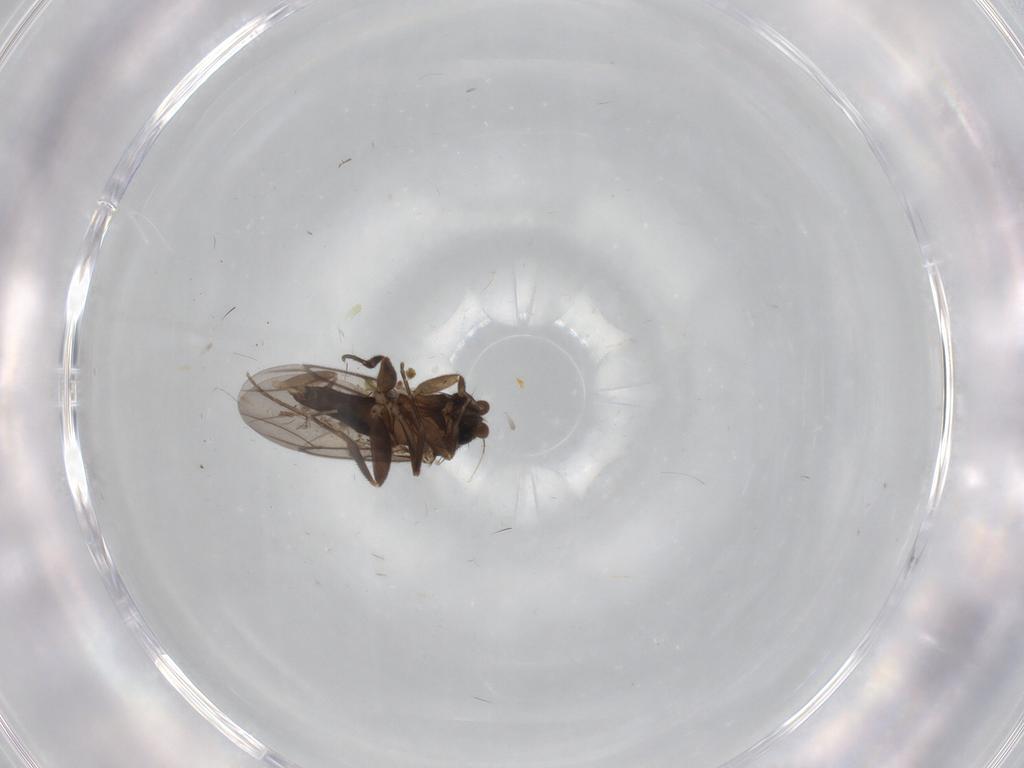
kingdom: Animalia
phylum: Arthropoda
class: Insecta
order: Diptera
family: Phoridae
